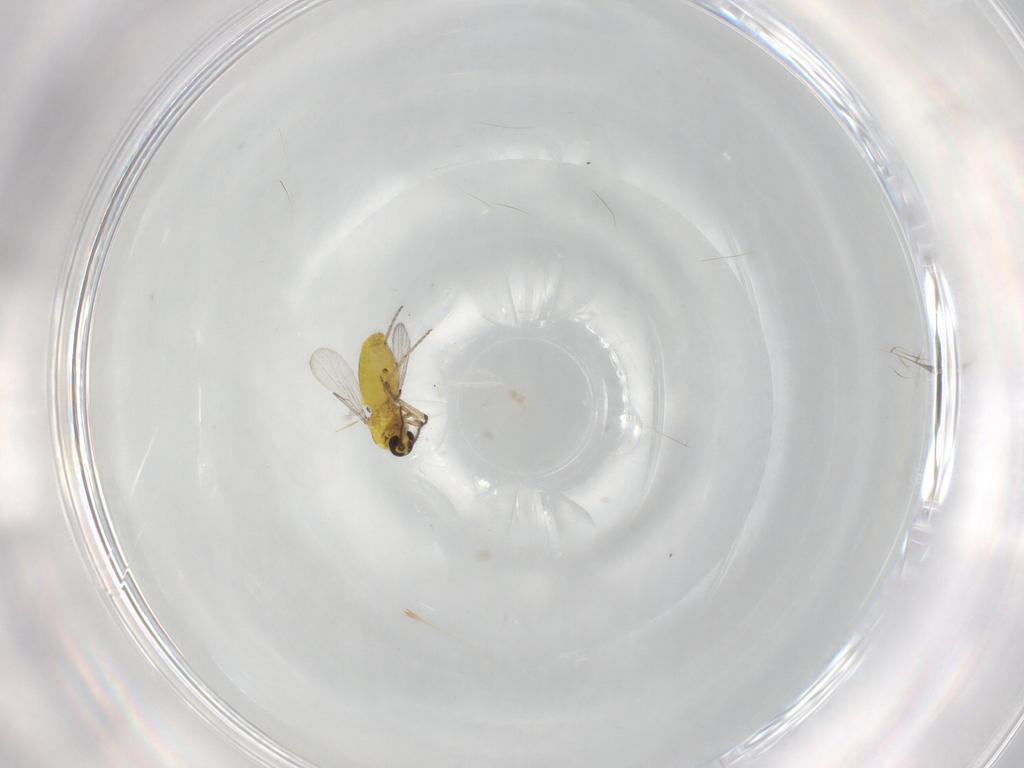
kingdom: Animalia
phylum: Arthropoda
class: Insecta
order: Diptera
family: Ceratopogonidae
